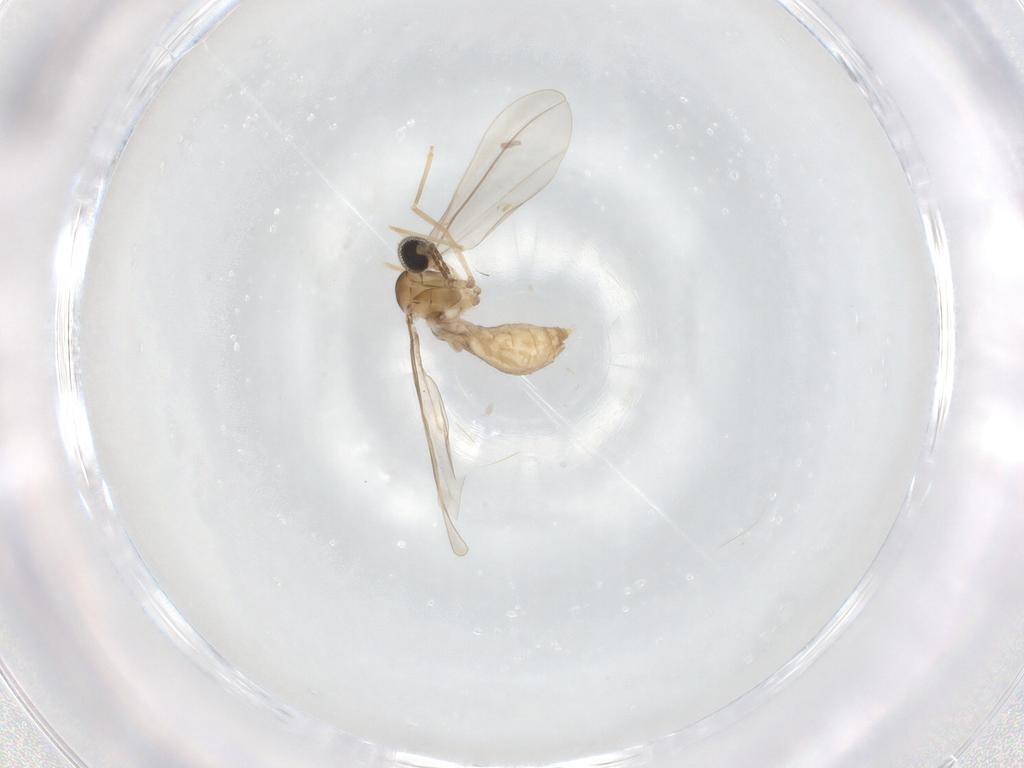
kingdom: Animalia
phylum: Arthropoda
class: Insecta
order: Diptera
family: Cecidomyiidae
